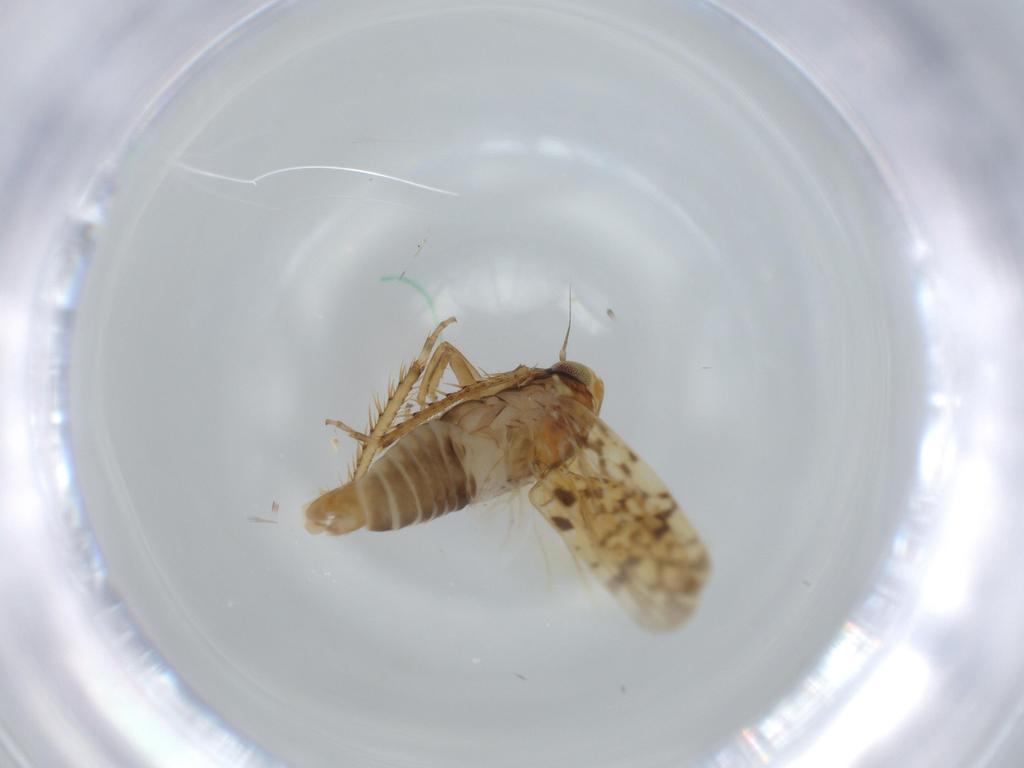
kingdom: Animalia
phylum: Arthropoda
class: Insecta
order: Hemiptera
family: Cicadellidae
